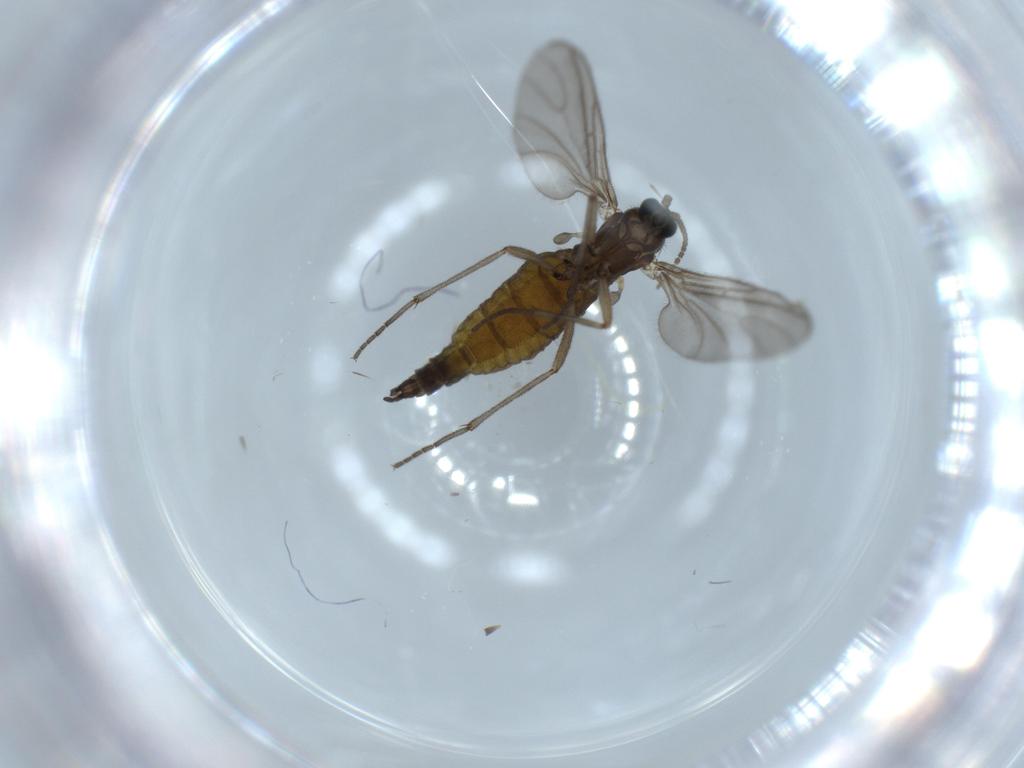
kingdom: Animalia
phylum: Arthropoda
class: Insecta
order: Diptera
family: Sciaridae
